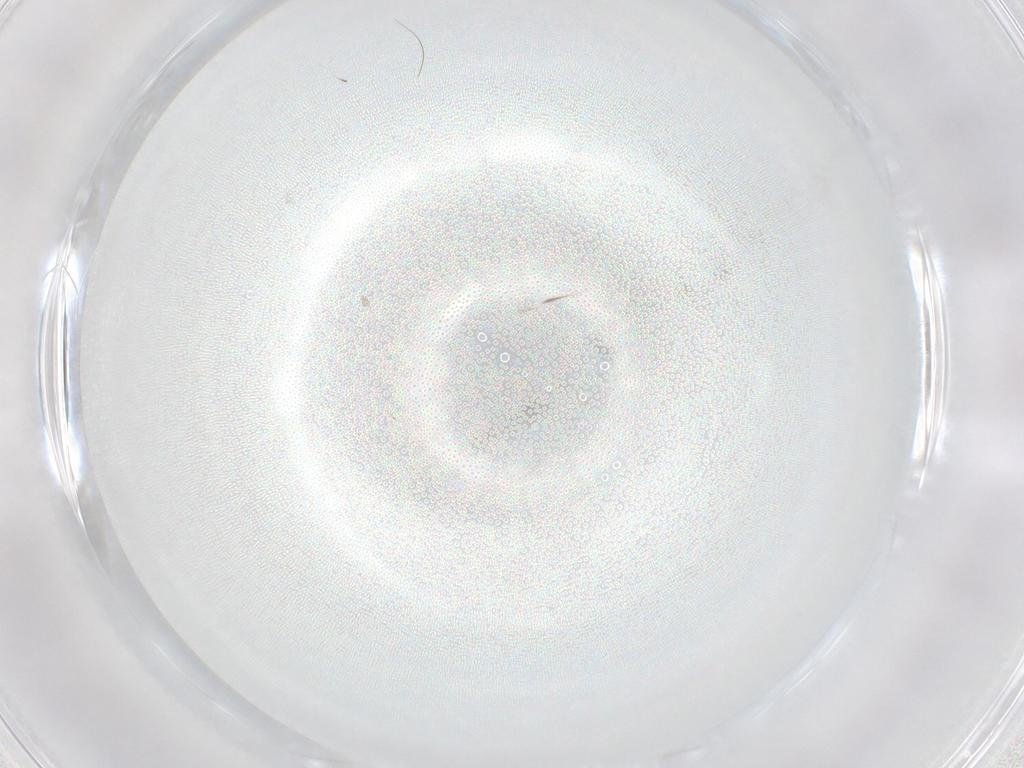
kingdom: Animalia
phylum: Arthropoda
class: Insecta
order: Diptera
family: Cecidomyiidae
